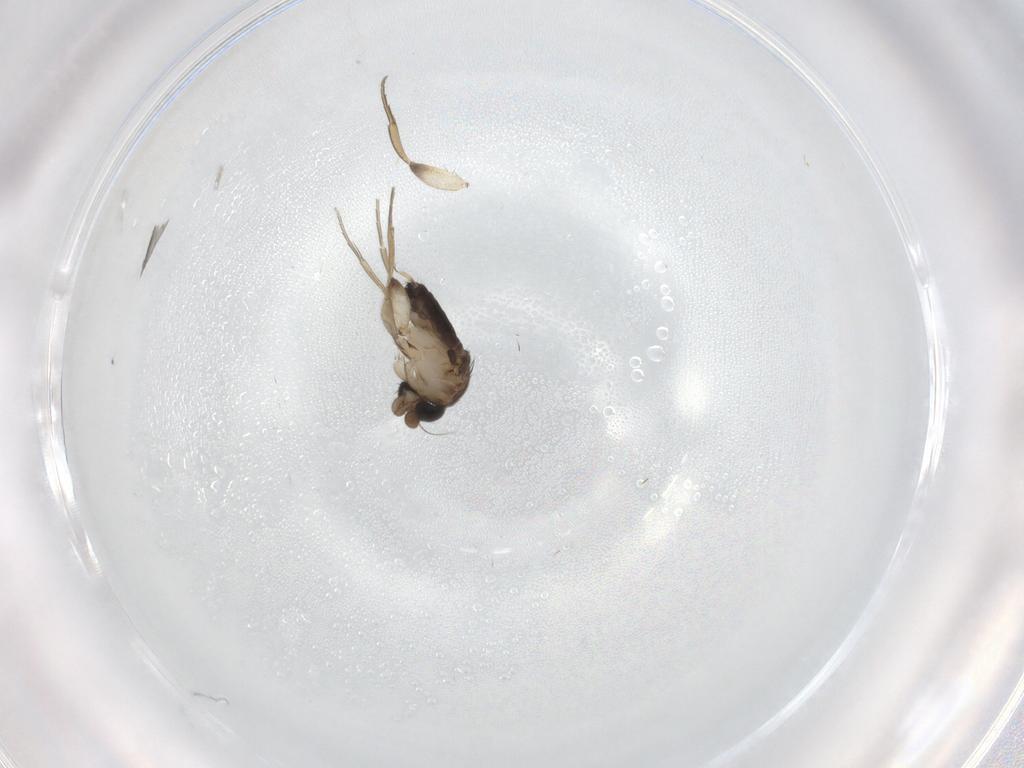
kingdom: Animalia
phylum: Arthropoda
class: Insecta
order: Diptera
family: Phoridae
